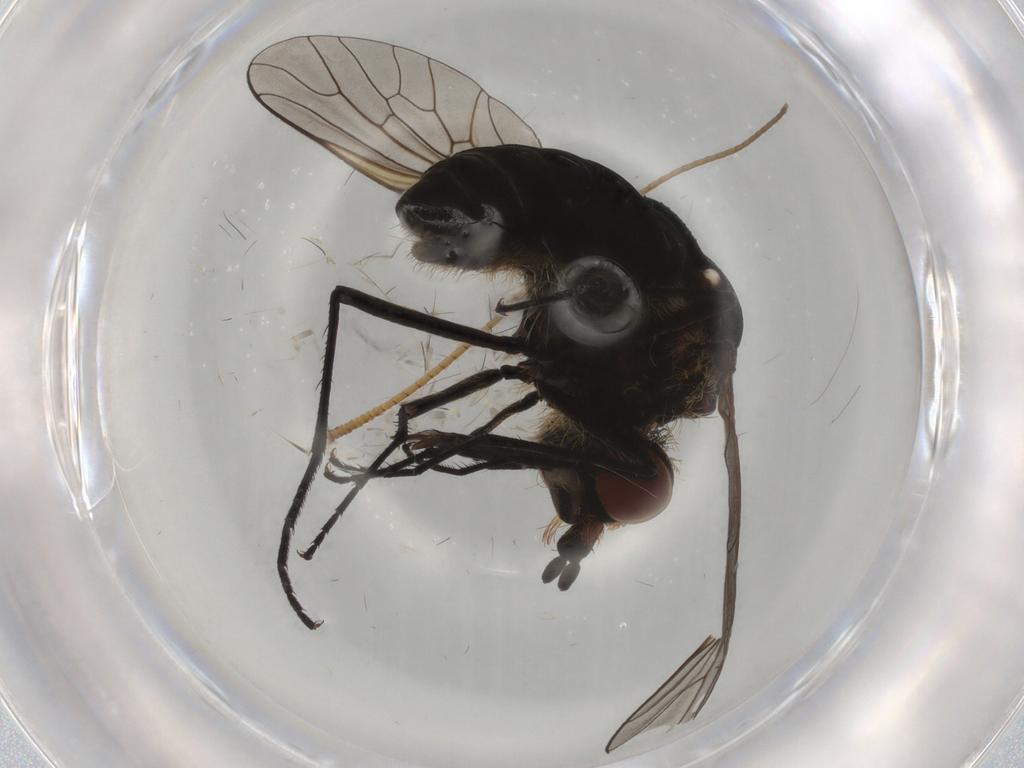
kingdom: Animalia
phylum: Arthropoda
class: Insecta
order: Diptera
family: Bombyliidae
